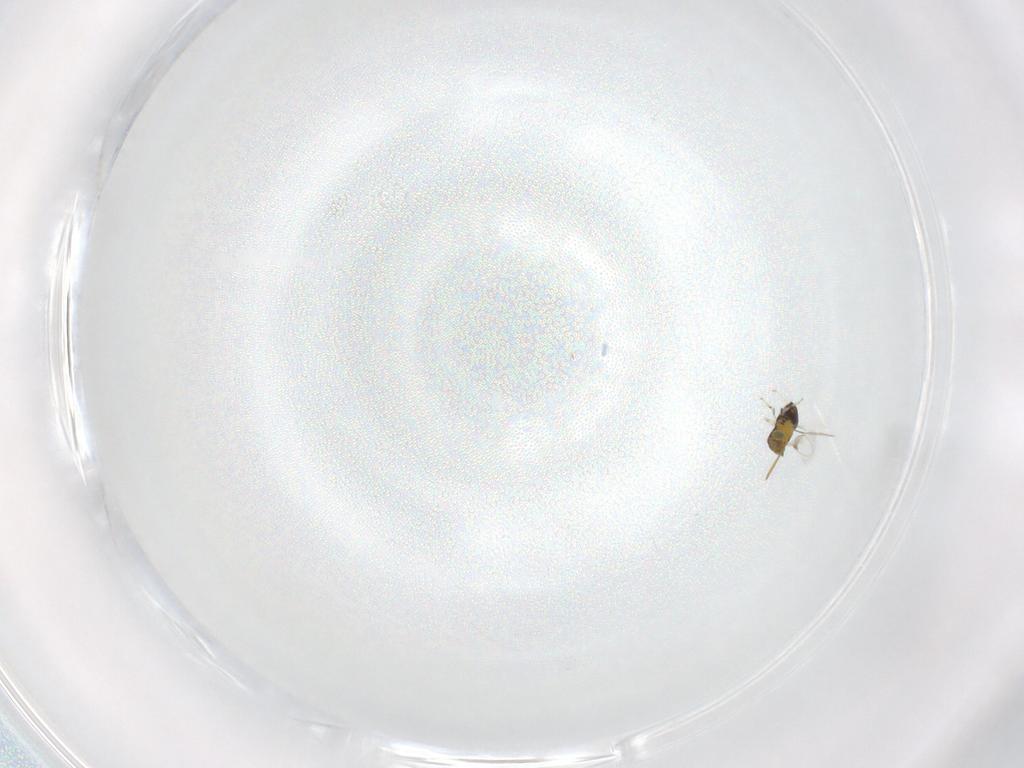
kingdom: Animalia
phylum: Arthropoda
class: Insecta
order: Hymenoptera
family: Aphelinidae
